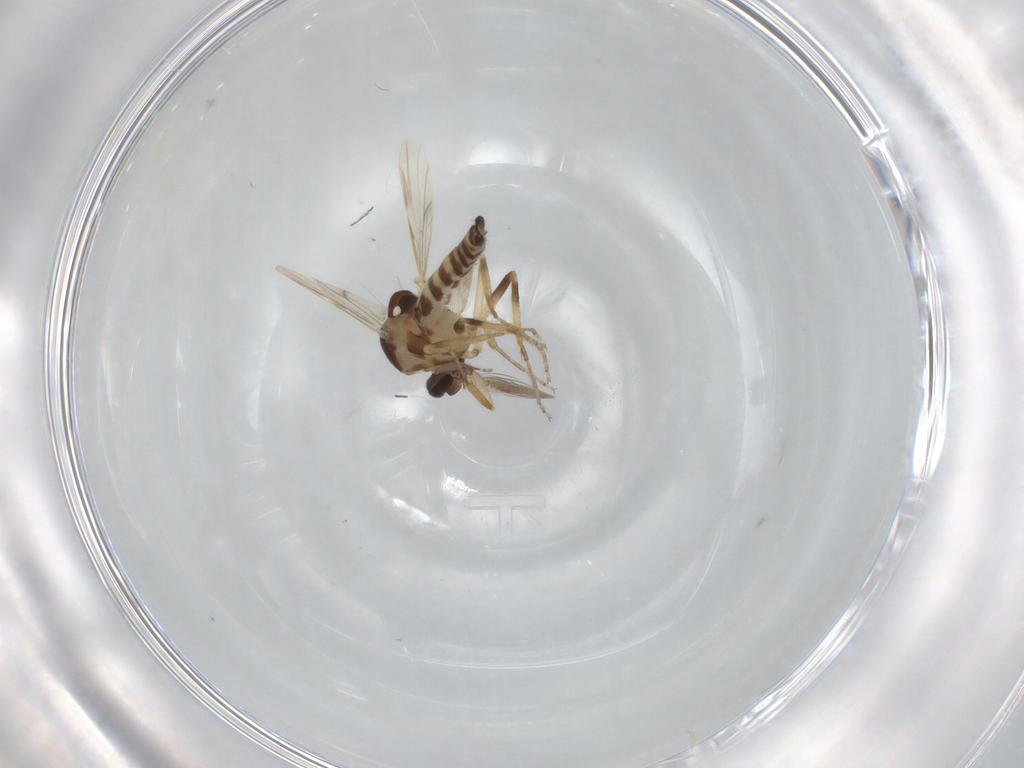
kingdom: Animalia
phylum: Arthropoda
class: Insecta
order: Diptera
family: Ceratopogonidae
